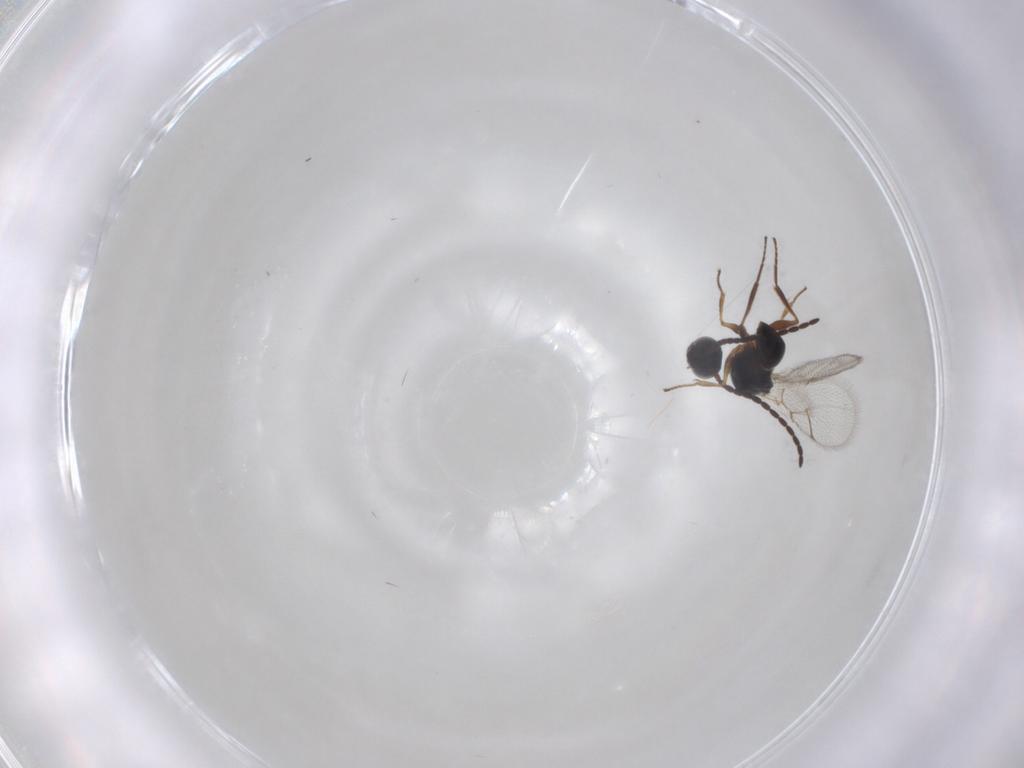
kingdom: Animalia
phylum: Arthropoda
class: Insecta
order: Hymenoptera
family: Figitidae
